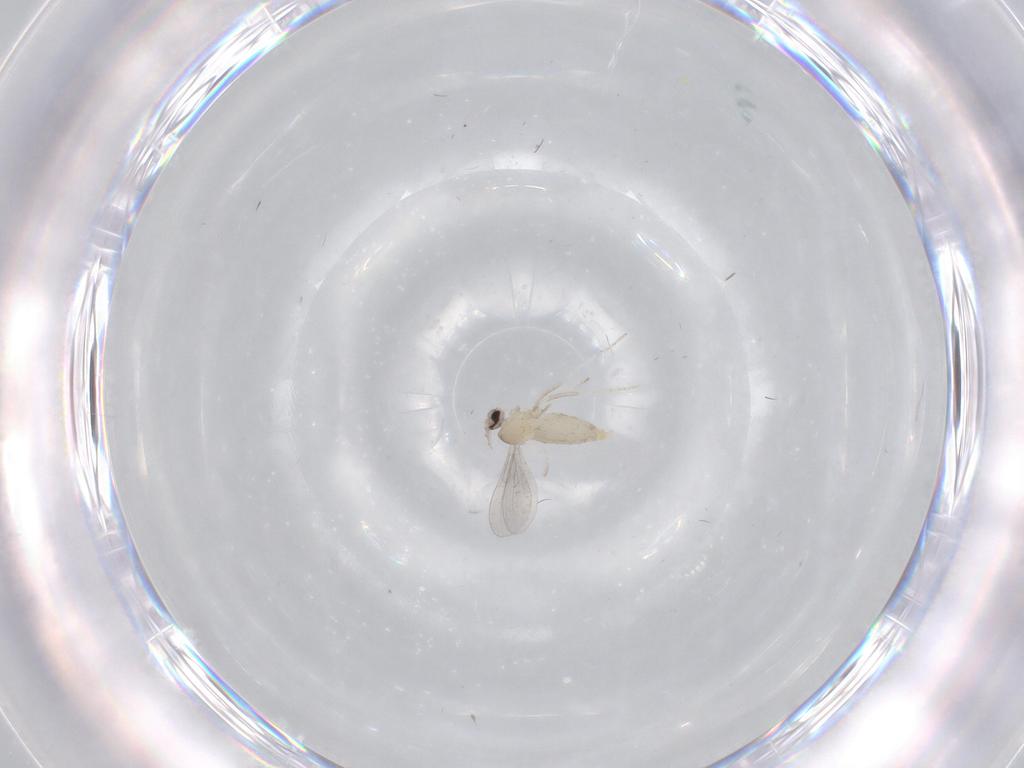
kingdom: Animalia
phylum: Arthropoda
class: Insecta
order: Diptera
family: Cecidomyiidae
